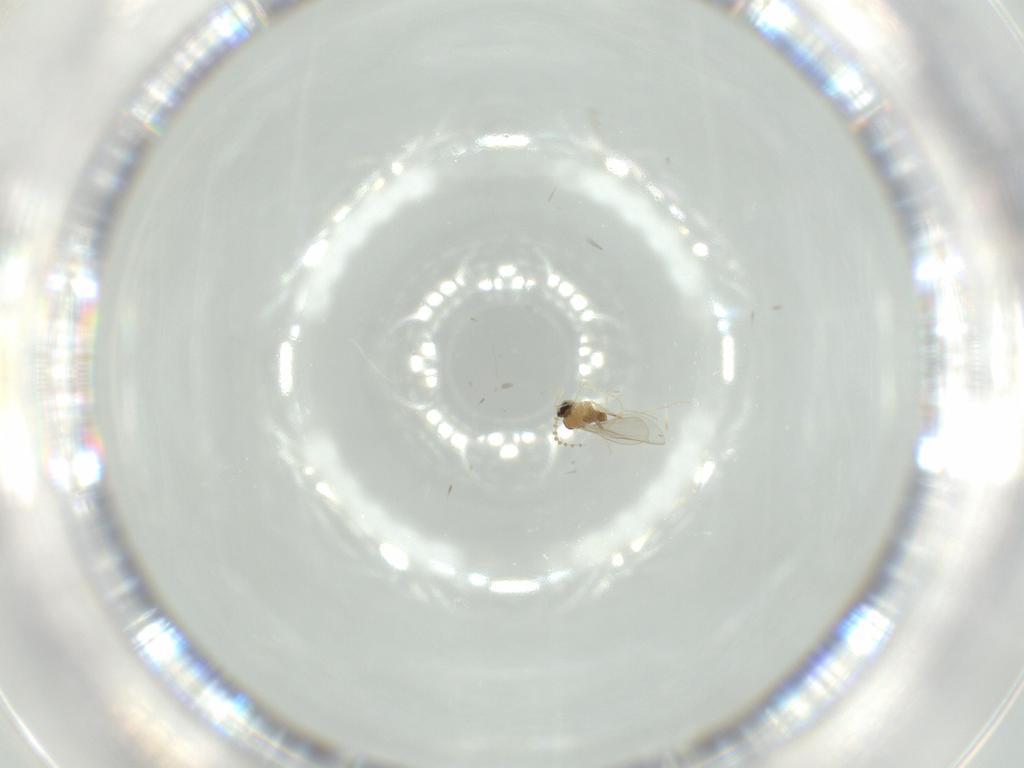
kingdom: Animalia
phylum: Arthropoda
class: Insecta
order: Diptera
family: Cecidomyiidae
